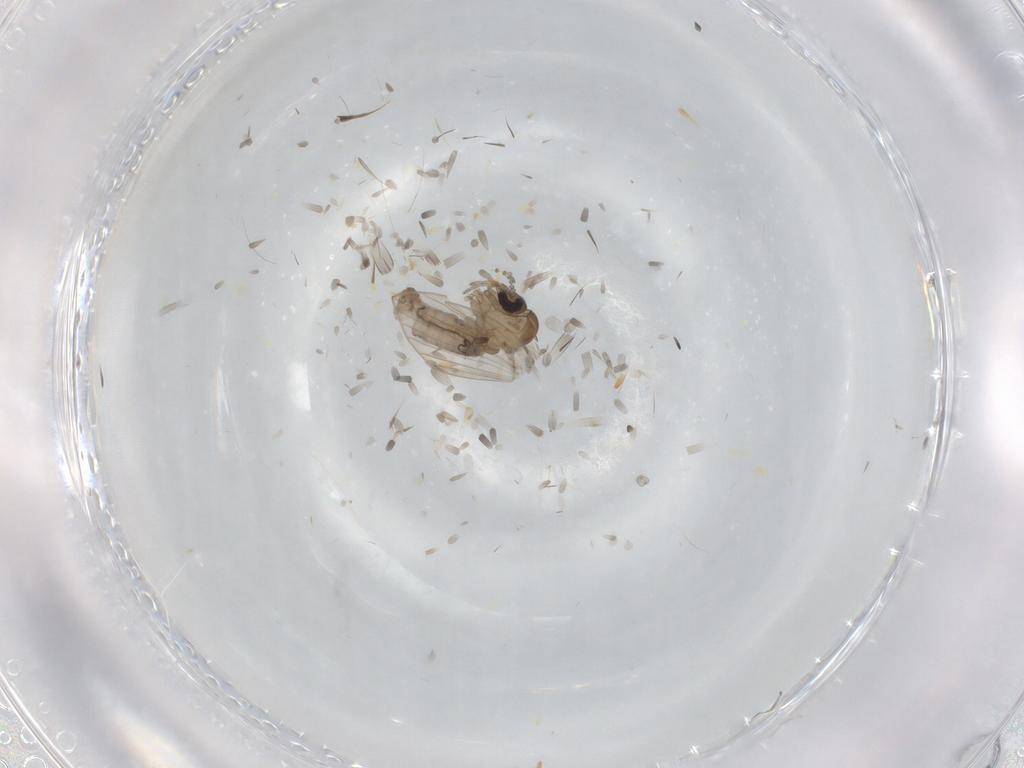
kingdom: Animalia
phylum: Arthropoda
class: Insecta
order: Diptera
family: Psychodidae
